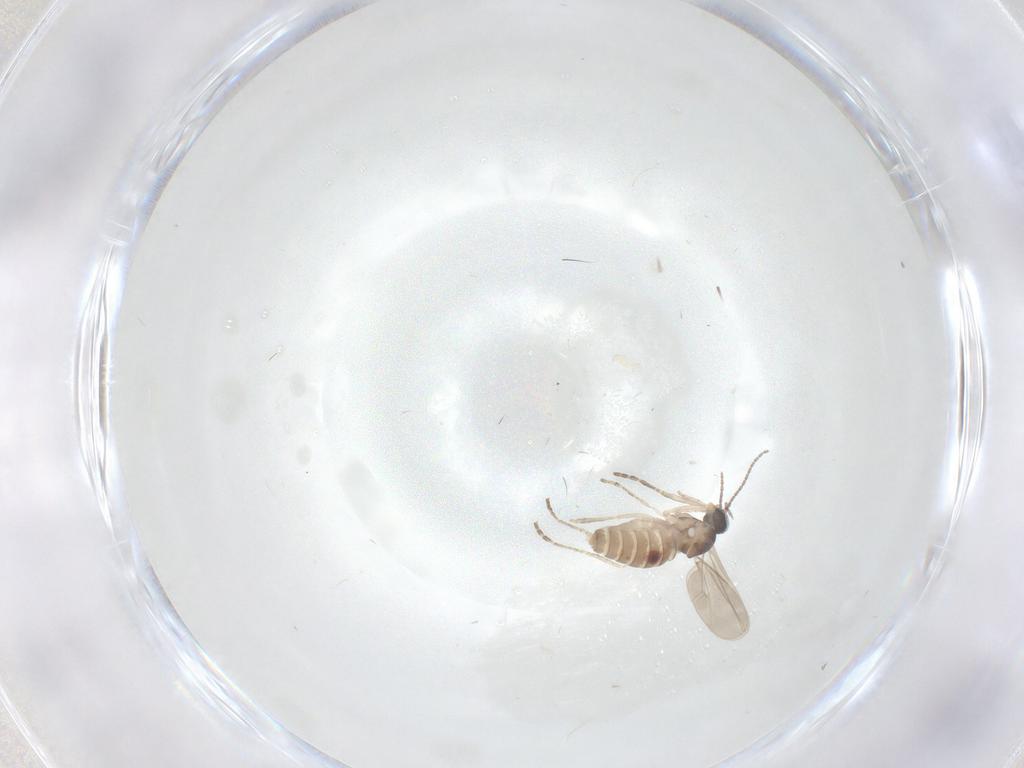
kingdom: Animalia
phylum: Arthropoda
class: Insecta
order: Diptera
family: Cecidomyiidae
